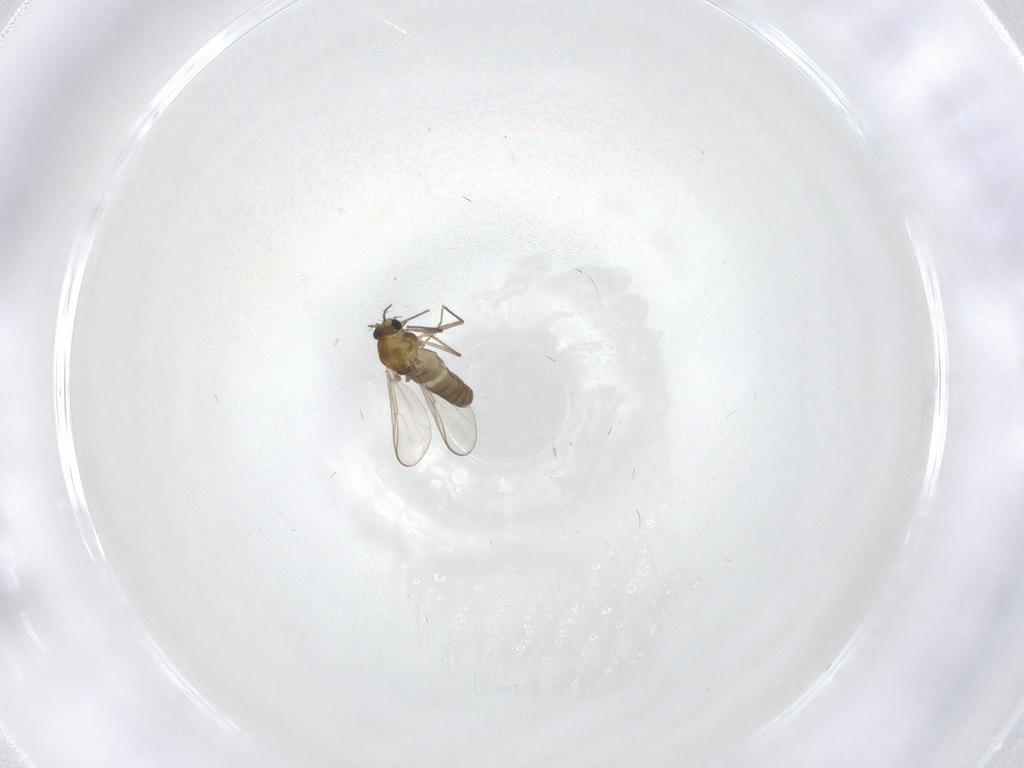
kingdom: Animalia
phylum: Arthropoda
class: Insecta
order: Diptera
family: Chironomidae
